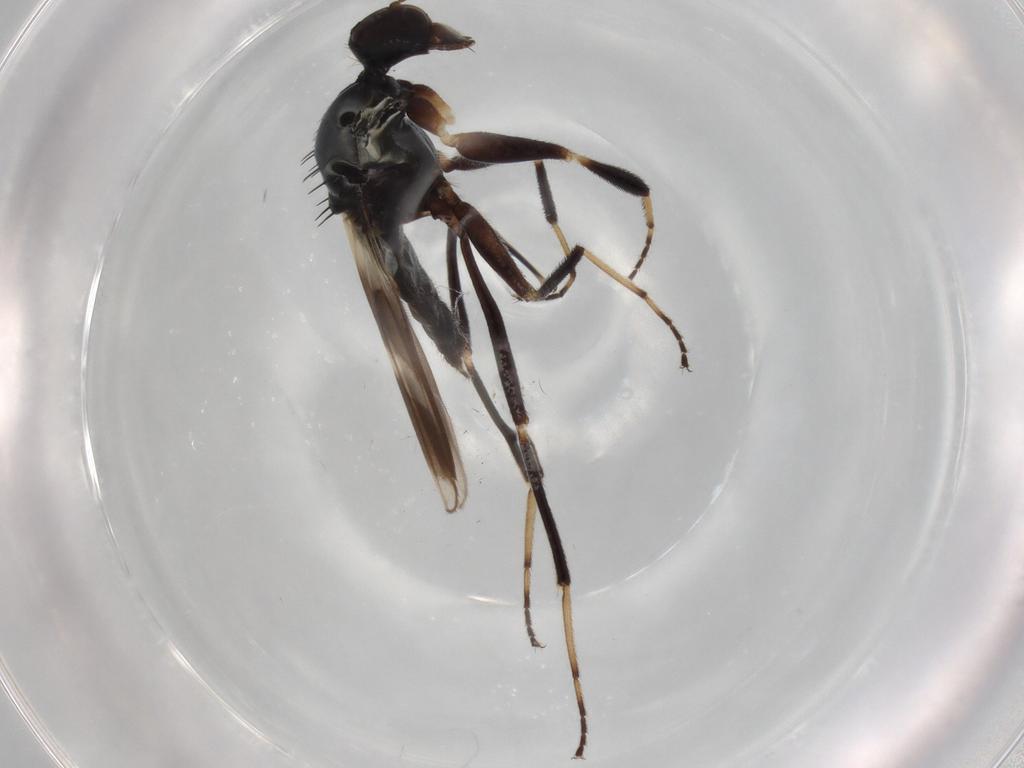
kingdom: Animalia
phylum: Arthropoda
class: Insecta
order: Diptera
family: Hybotidae
